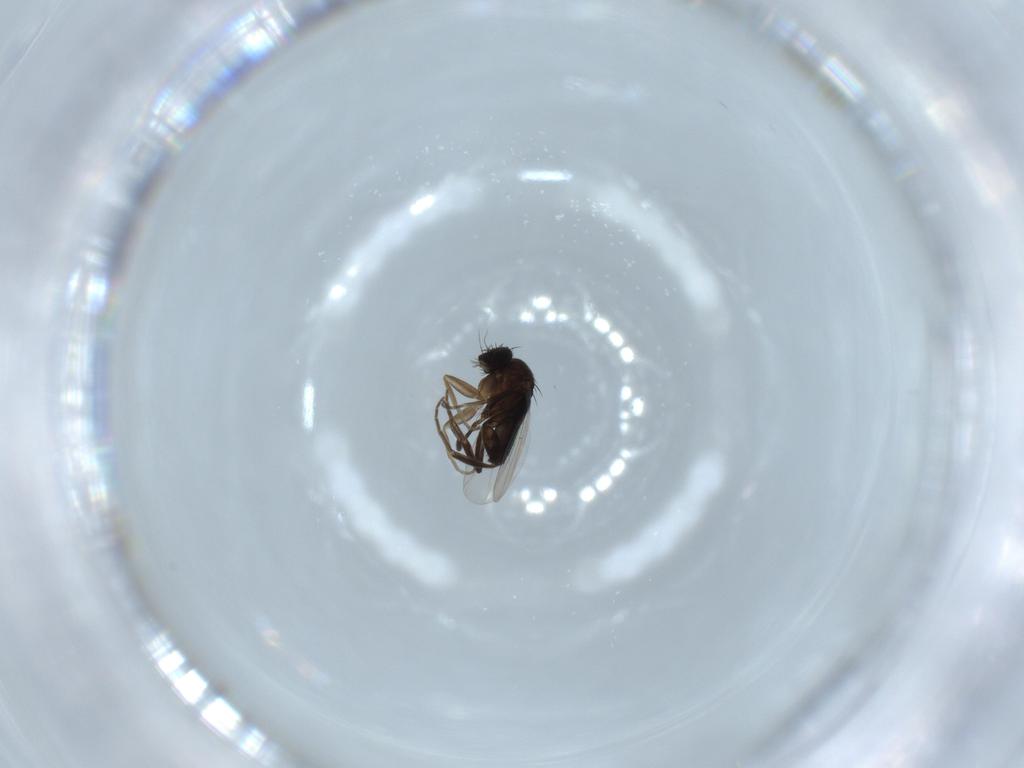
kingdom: Animalia
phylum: Arthropoda
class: Insecta
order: Diptera
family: Phoridae
